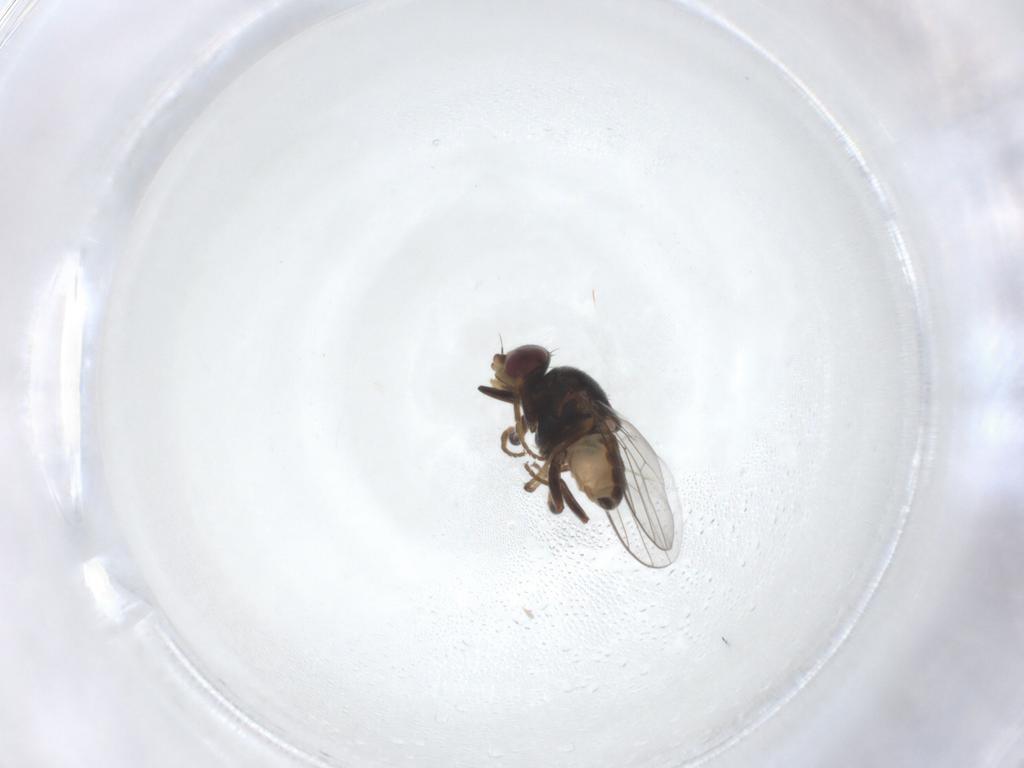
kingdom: Animalia
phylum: Arthropoda
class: Insecta
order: Diptera
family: Chloropidae
